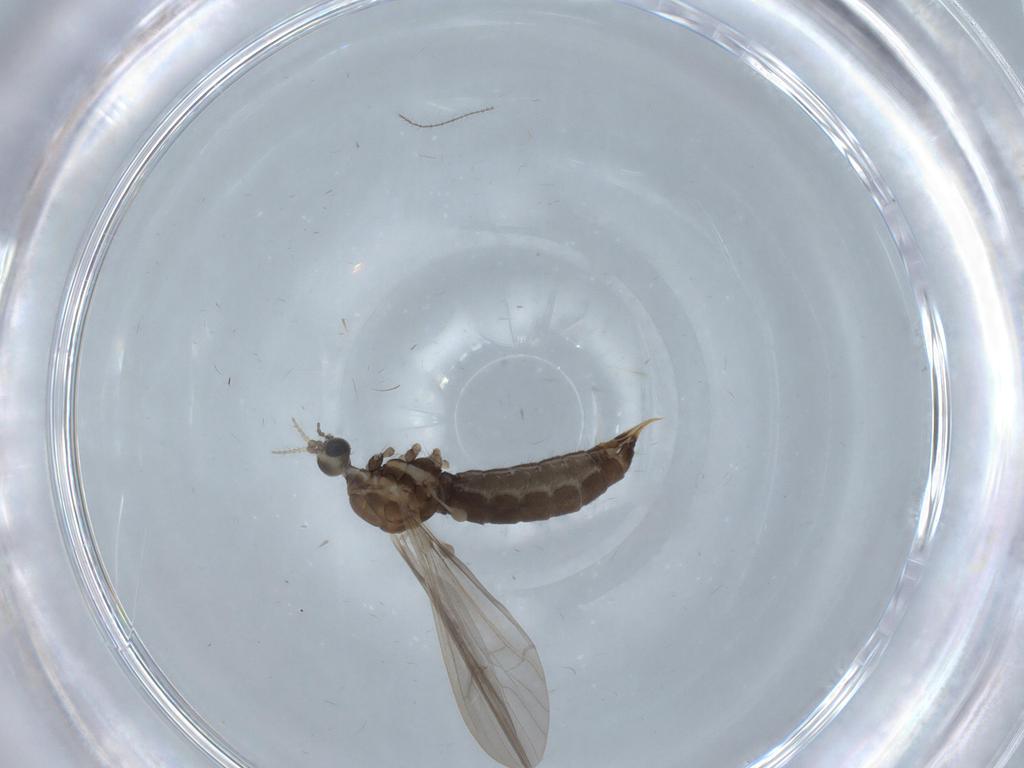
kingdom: Animalia
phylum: Arthropoda
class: Insecta
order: Diptera
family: Limoniidae
